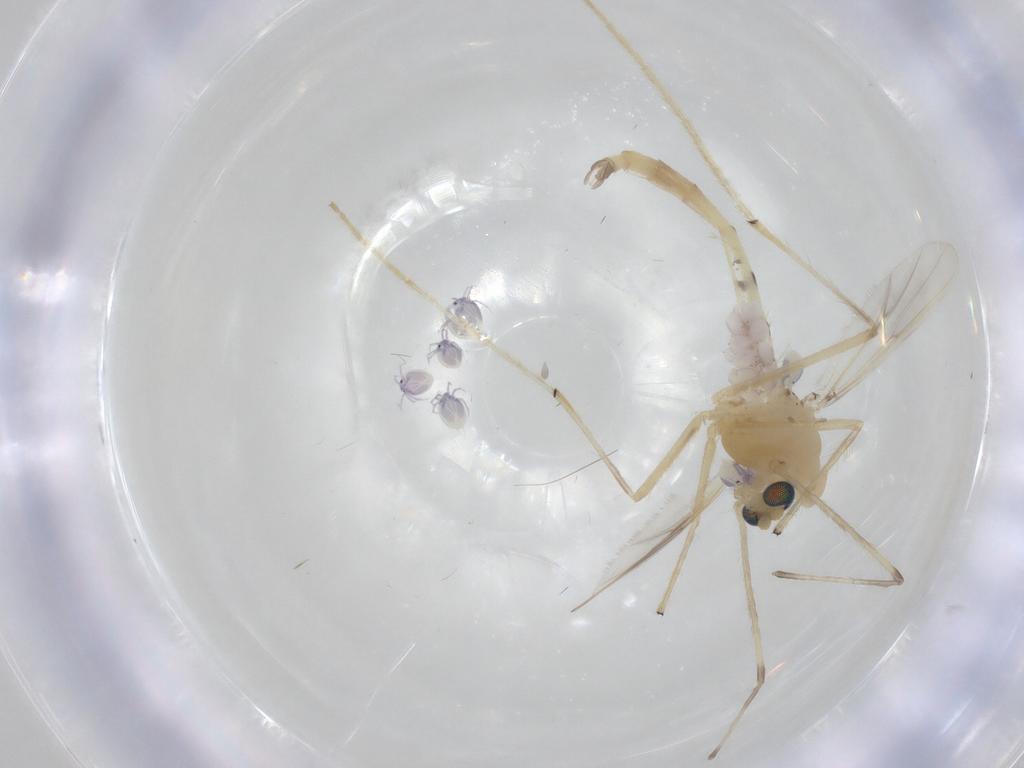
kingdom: Animalia
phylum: Arthropoda
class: Insecta
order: Diptera
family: Chironomidae
